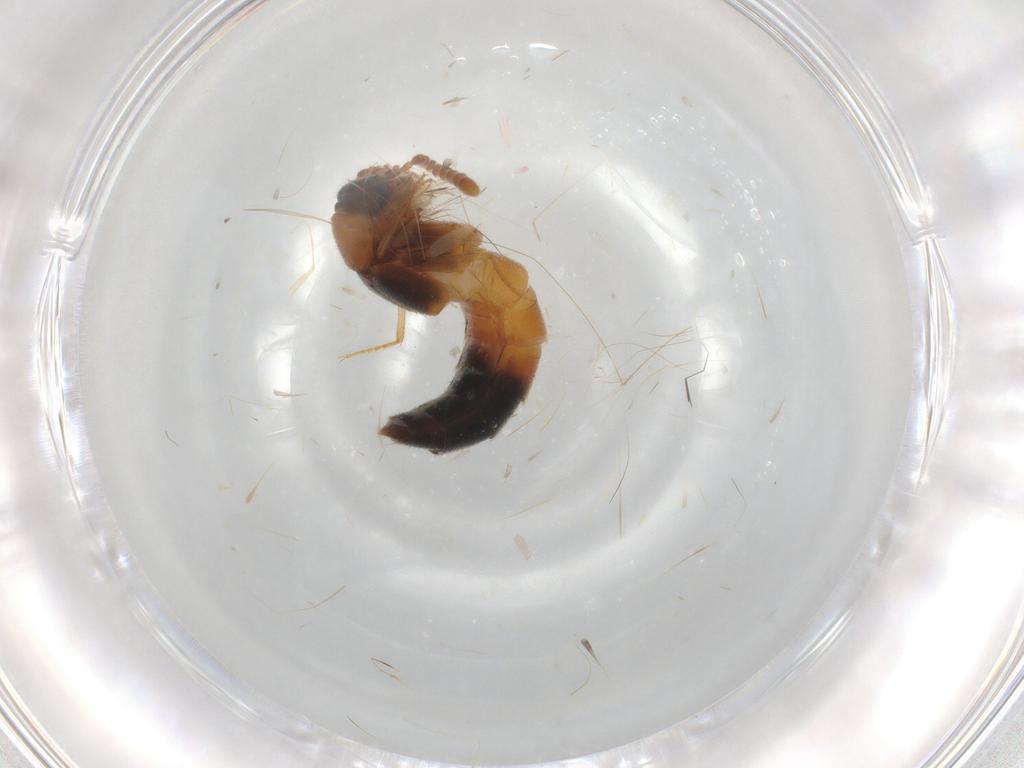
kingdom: Animalia
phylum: Arthropoda
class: Insecta
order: Coleoptera
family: Staphylinidae
